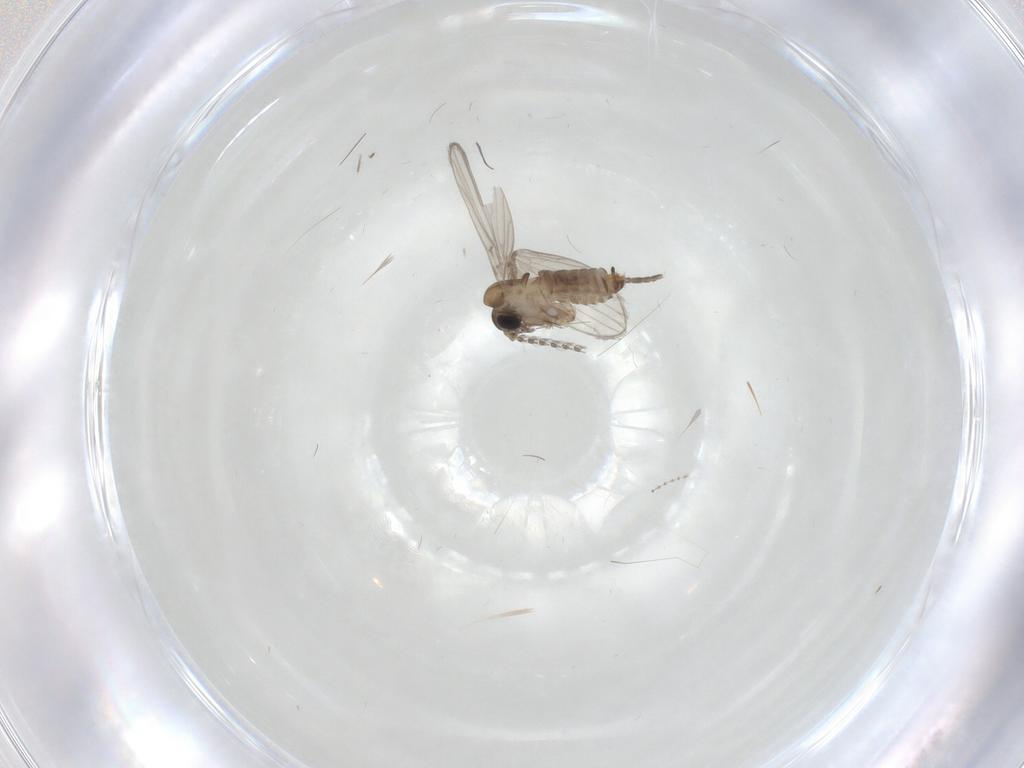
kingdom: Animalia
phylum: Arthropoda
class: Insecta
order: Diptera
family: Cecidomyiidae
